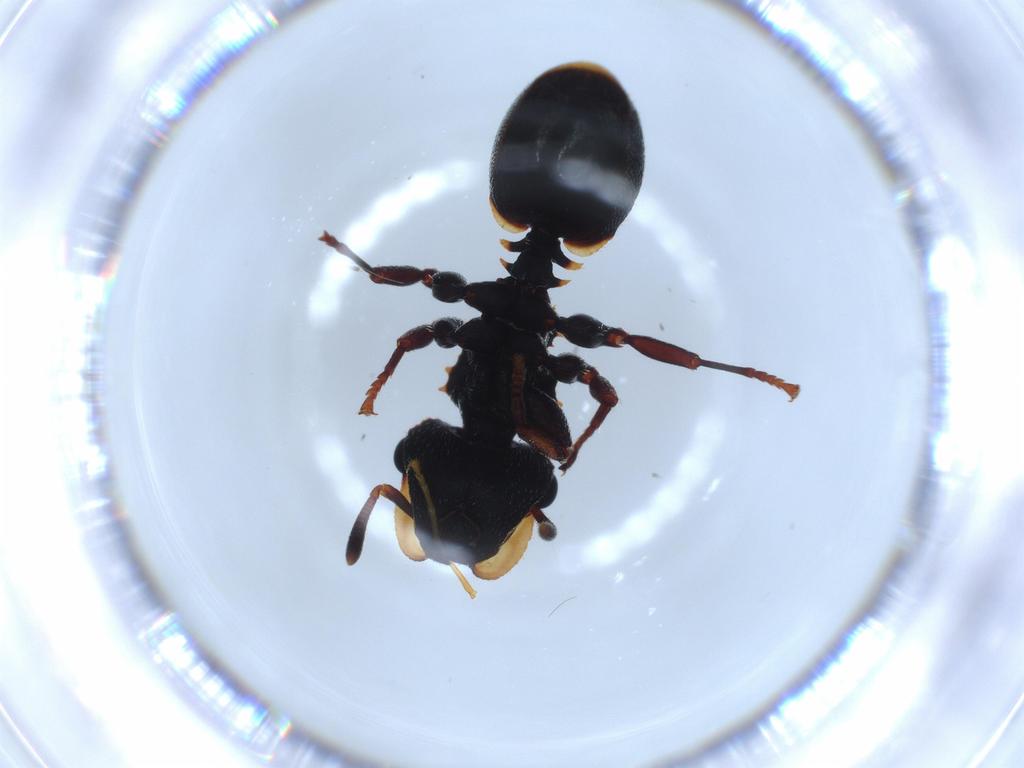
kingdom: Animalia
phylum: Arthropoda
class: Insecta
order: Hymenoptera
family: Formicidae
